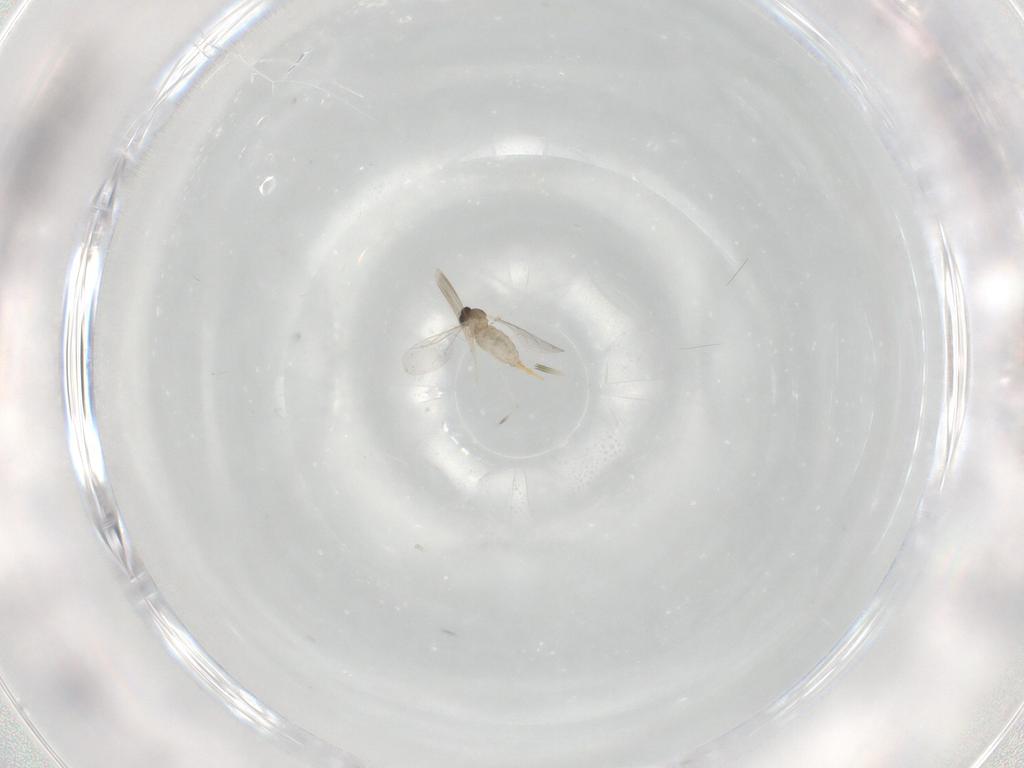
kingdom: Animalia
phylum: Arthropoda
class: Insecta
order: Diptera
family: Cecidomyiidae
